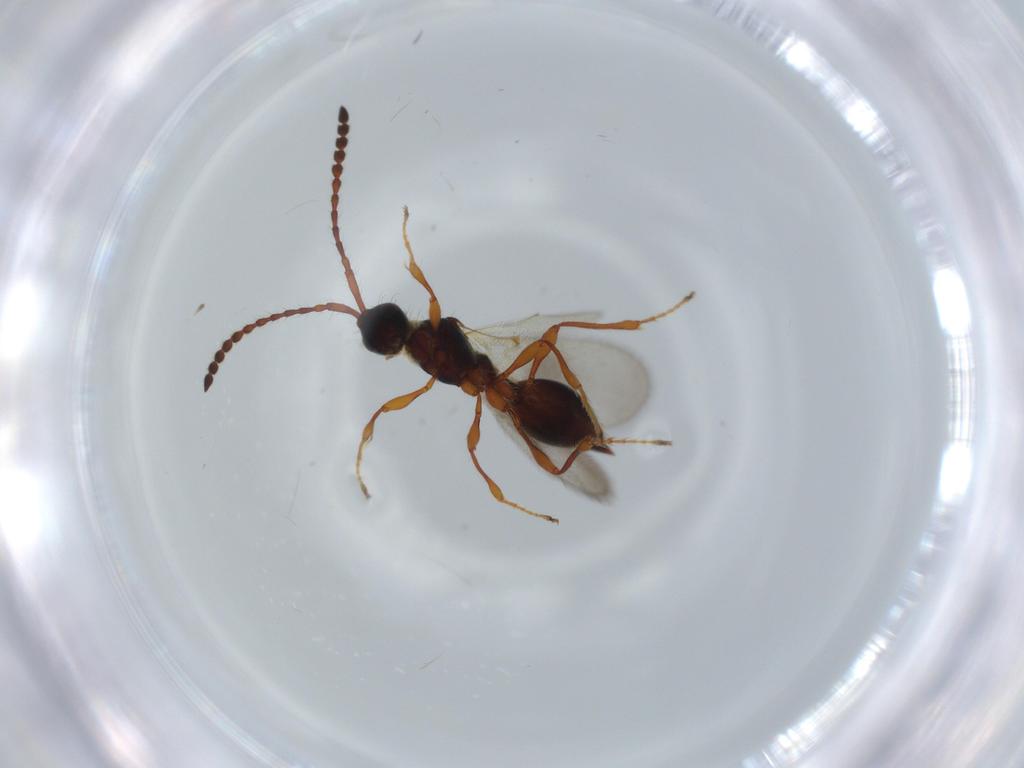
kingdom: Animalia
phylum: Arthropoda
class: Insecta
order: Hymenoptera
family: Diapriidae
